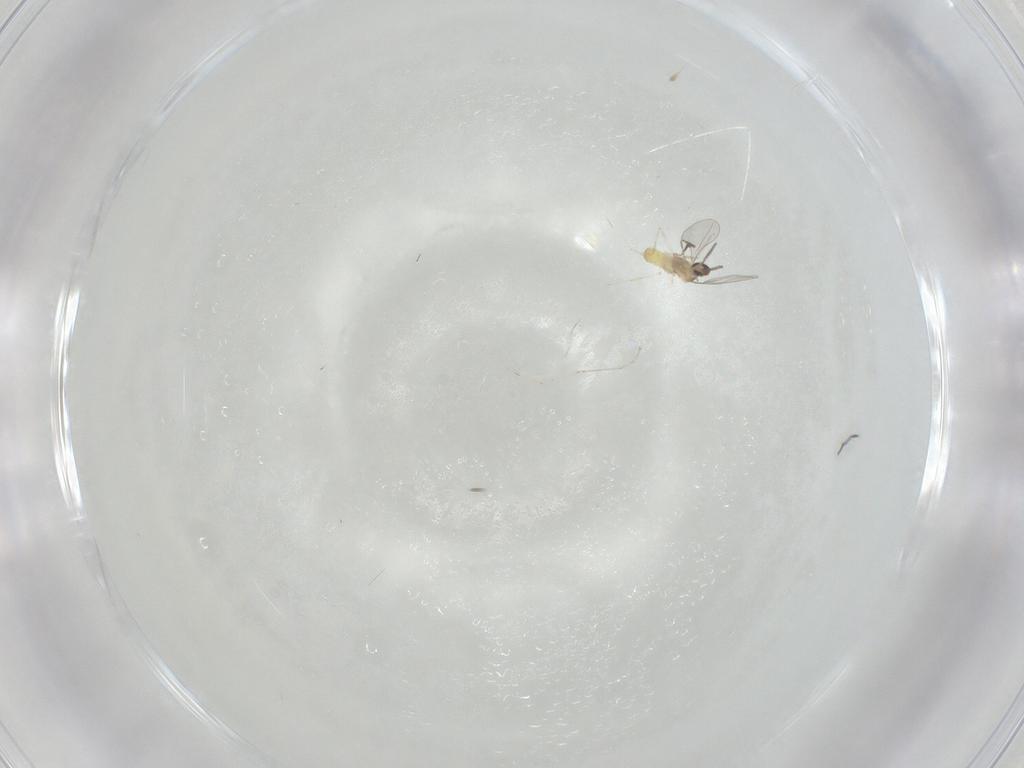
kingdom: Animalia
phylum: Arthropoda
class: Insecta
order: Diptera
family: Cecidomyiidae
